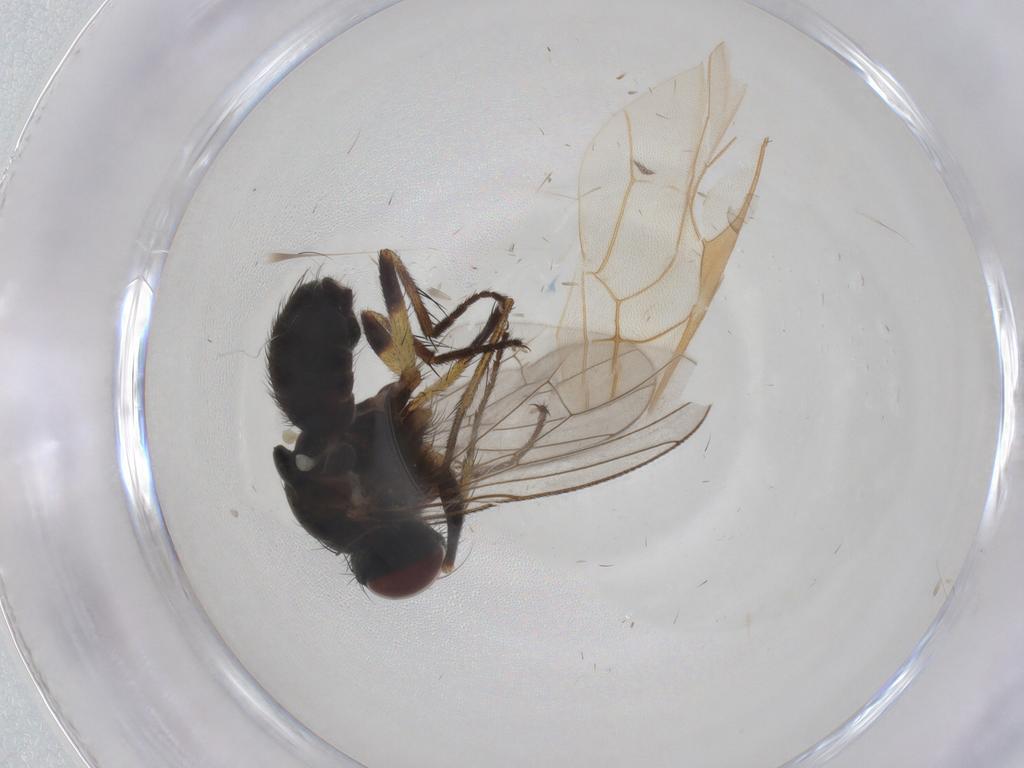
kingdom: Animalia
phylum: Arthropoda
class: Insecta
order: Diptera
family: Muscidae
